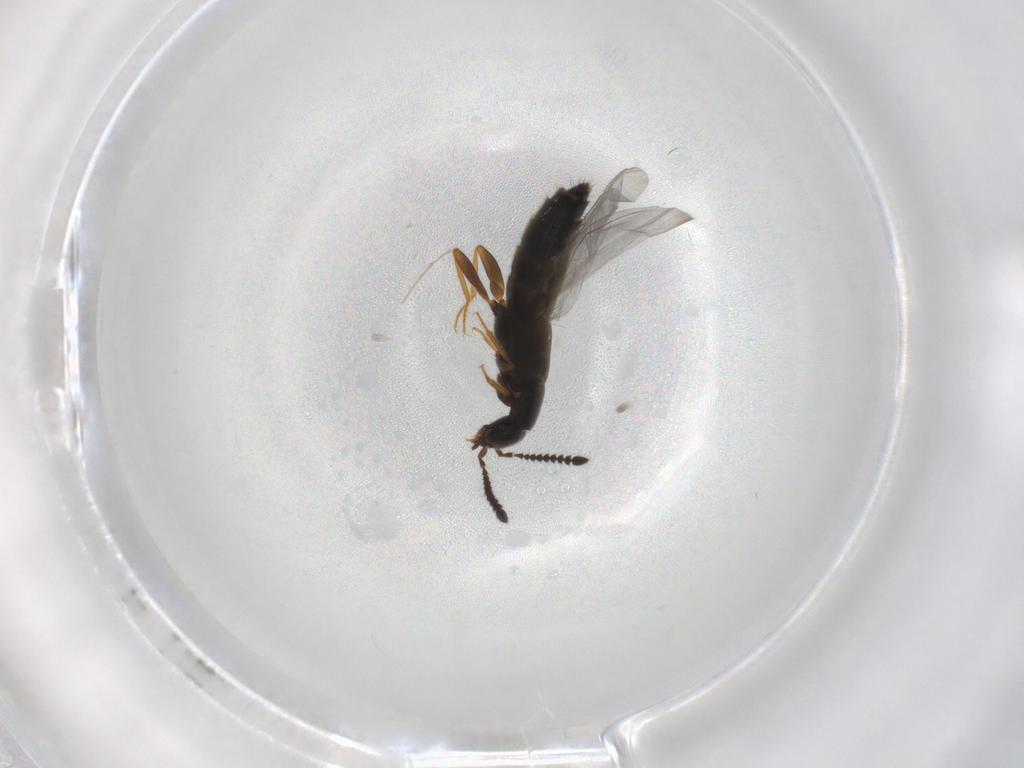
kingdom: Animalia
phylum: Arthropoda
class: Insecta
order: Coleoptera
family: Staphylinidae
